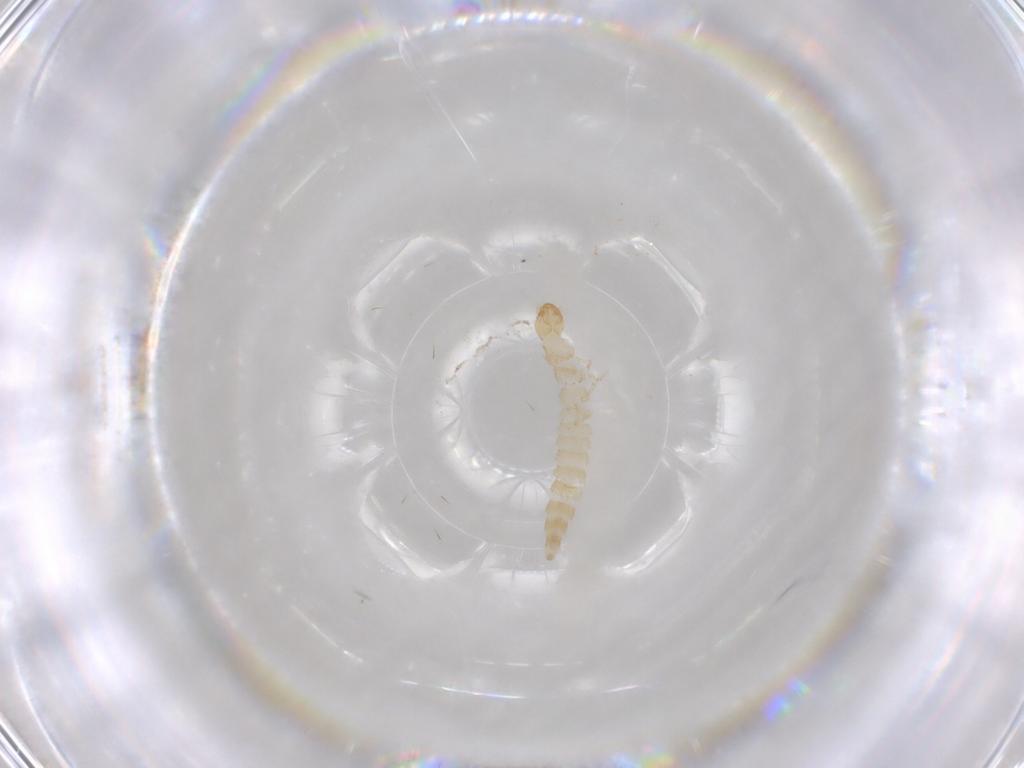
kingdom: Animalia
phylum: Arthropoda
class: Insecta
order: Coleoptera
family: Staphylinidae
